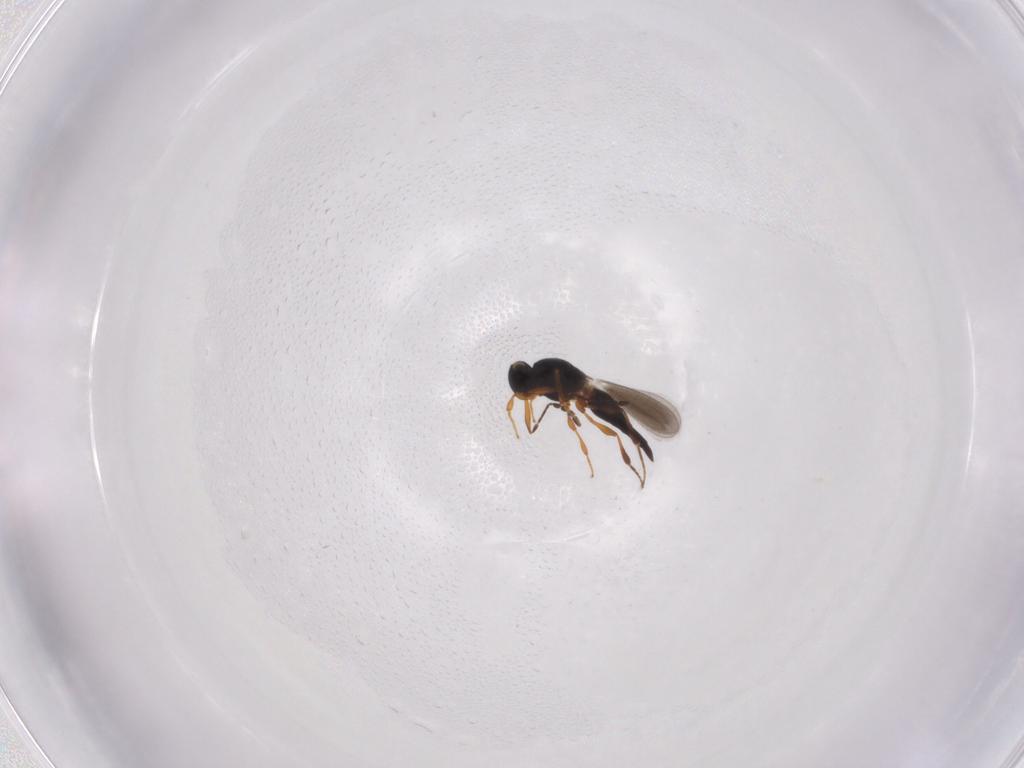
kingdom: Animalia
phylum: Arthropoda
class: Insecta
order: Hymenoptera
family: Platygastridae
